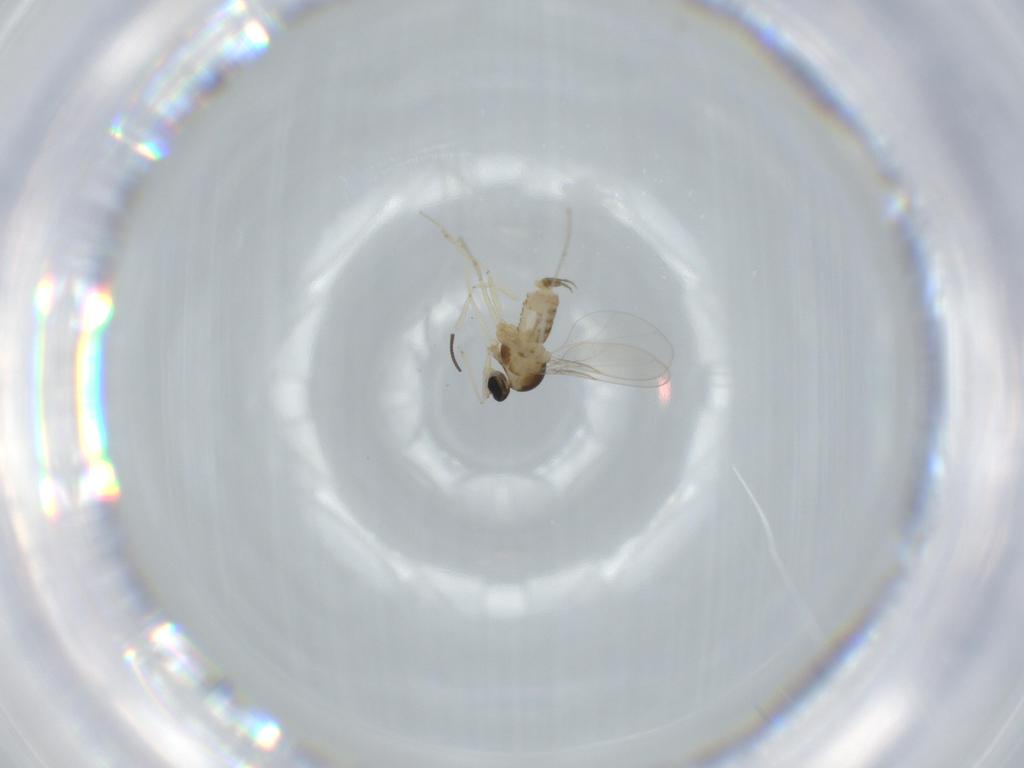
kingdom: Animalia
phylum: Arthropoda
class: Insecta
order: Diptera
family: Cecidomyiidae
